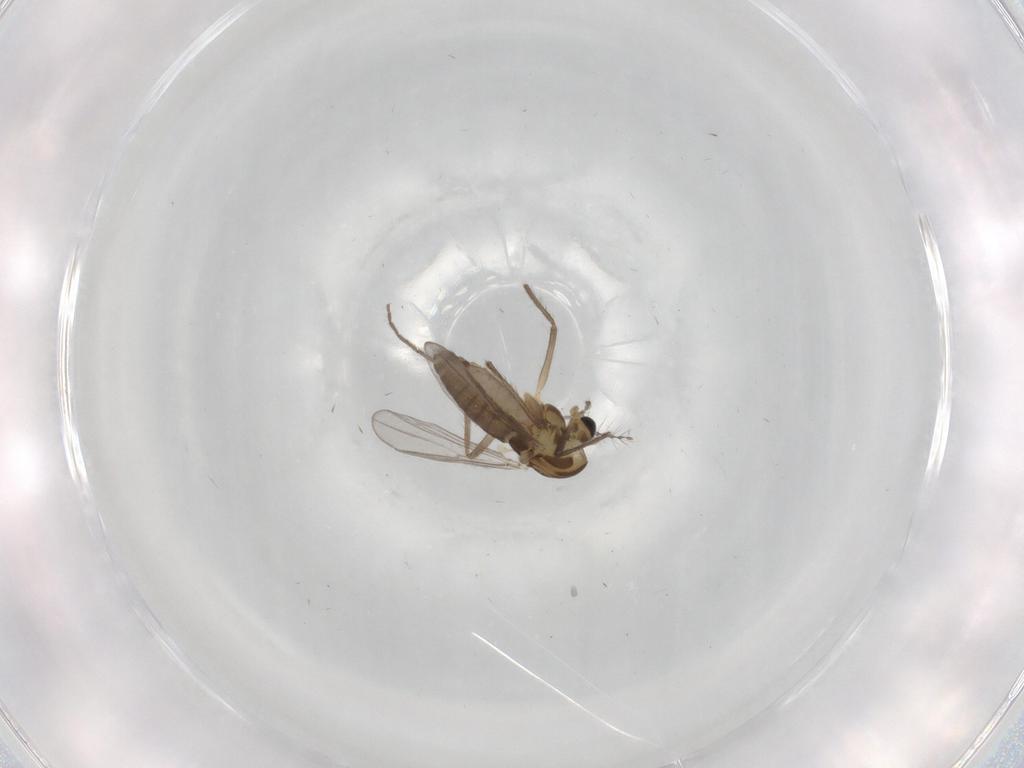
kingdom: Animalia
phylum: Arthropoda
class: Insecta
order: Diptera
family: Chironomidae
